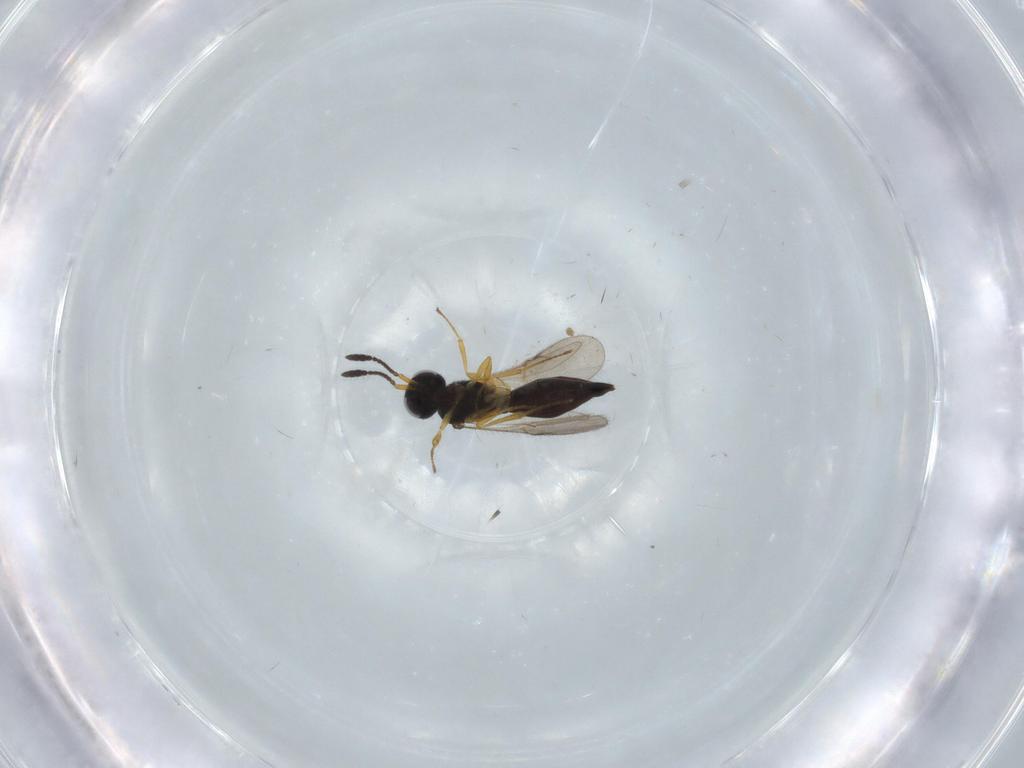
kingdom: Animalia
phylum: Arthropoda
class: Insecta
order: Hymenoptera
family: Scelionidae
